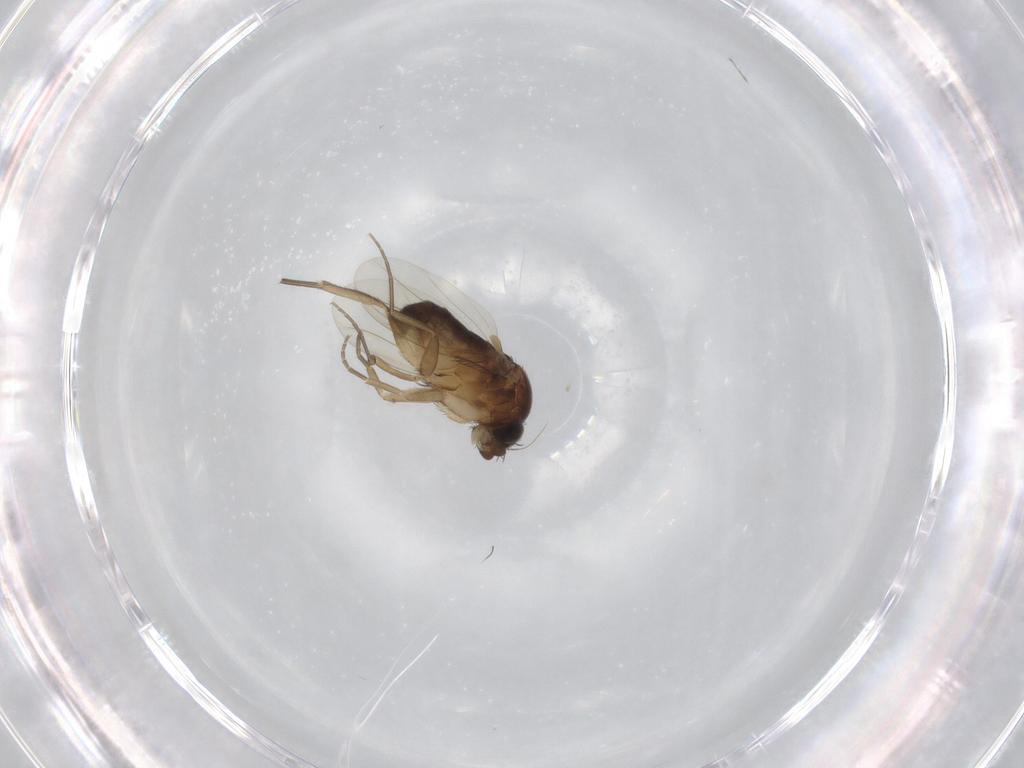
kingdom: Animalia
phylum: Arthropoda
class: Insecta
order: Diptera
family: Phoridae
